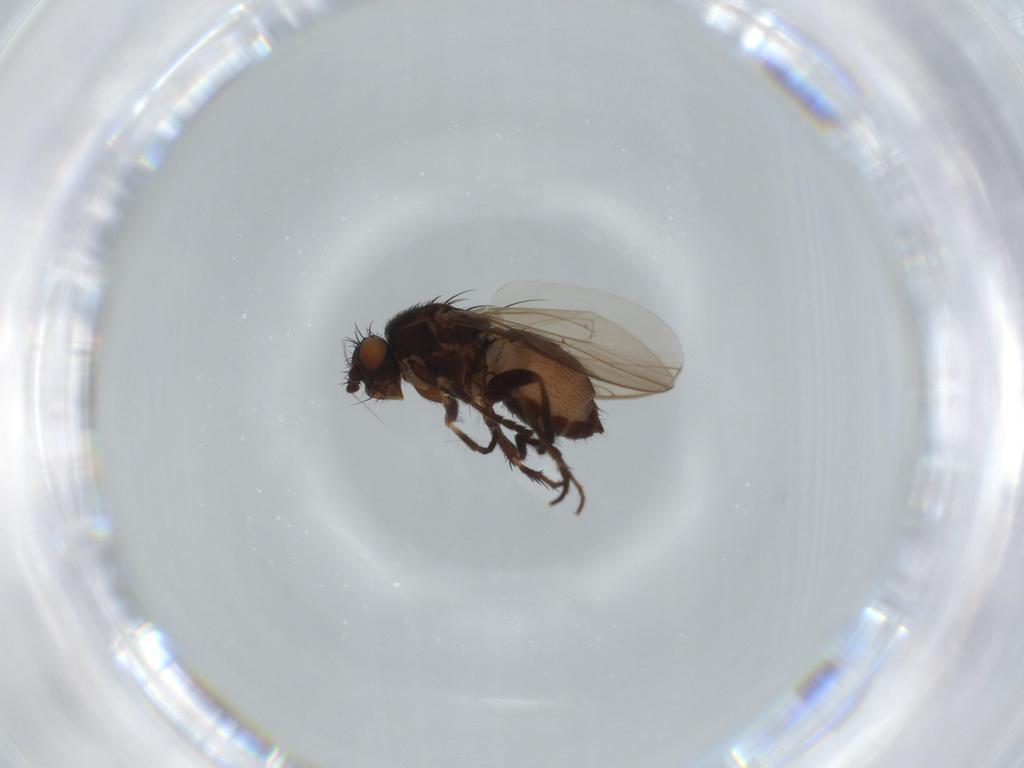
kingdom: Animalia
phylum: Arthropoda
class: Insecta
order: Diptera
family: Sphaeroceridae
